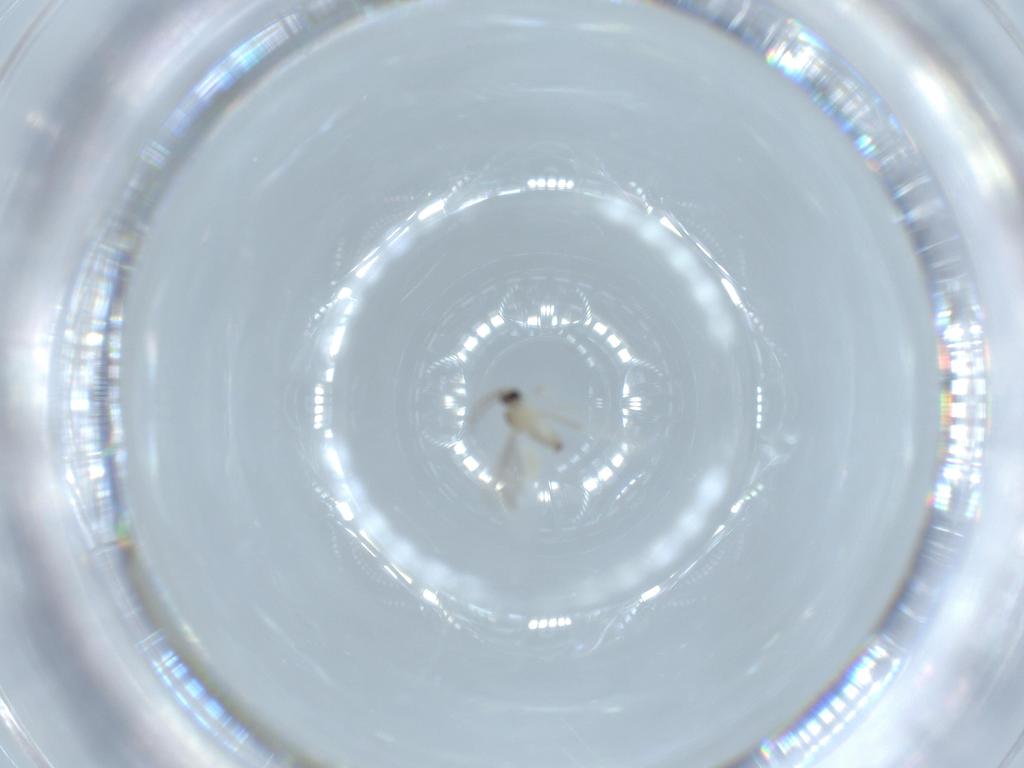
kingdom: Animalia
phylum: Arthropoda
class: Insecta
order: Diptera
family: Cecidomyiidae
